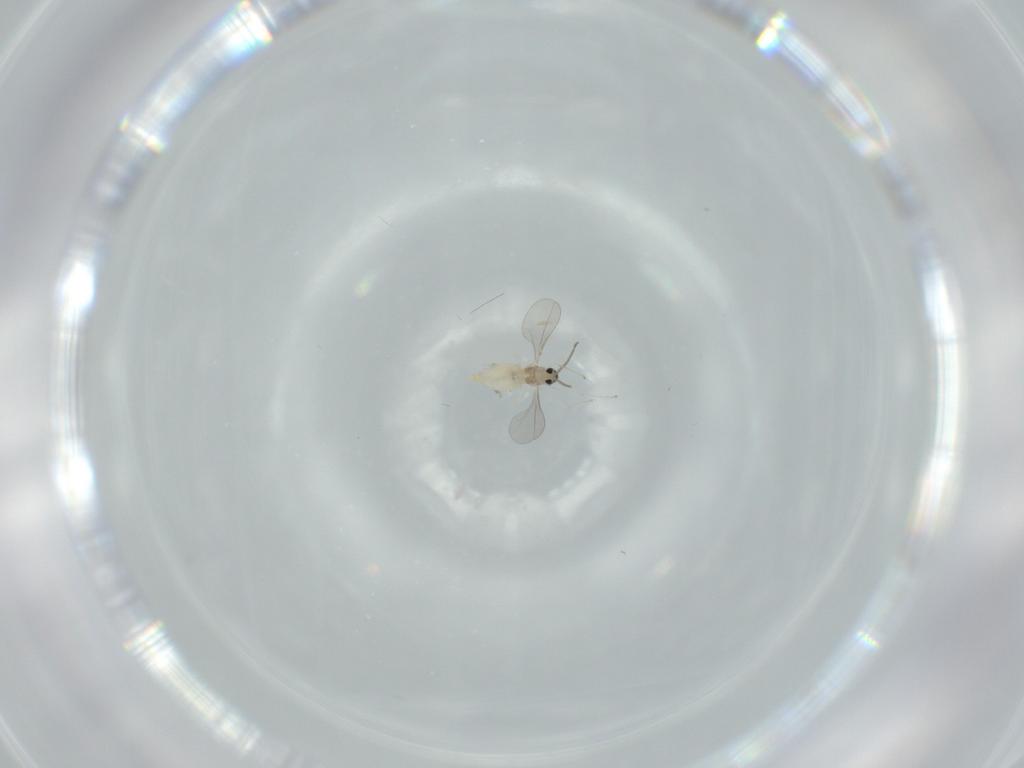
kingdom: Animalia
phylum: Arthropoda
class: Insecta
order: Diptera
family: Cecidomyiidae
